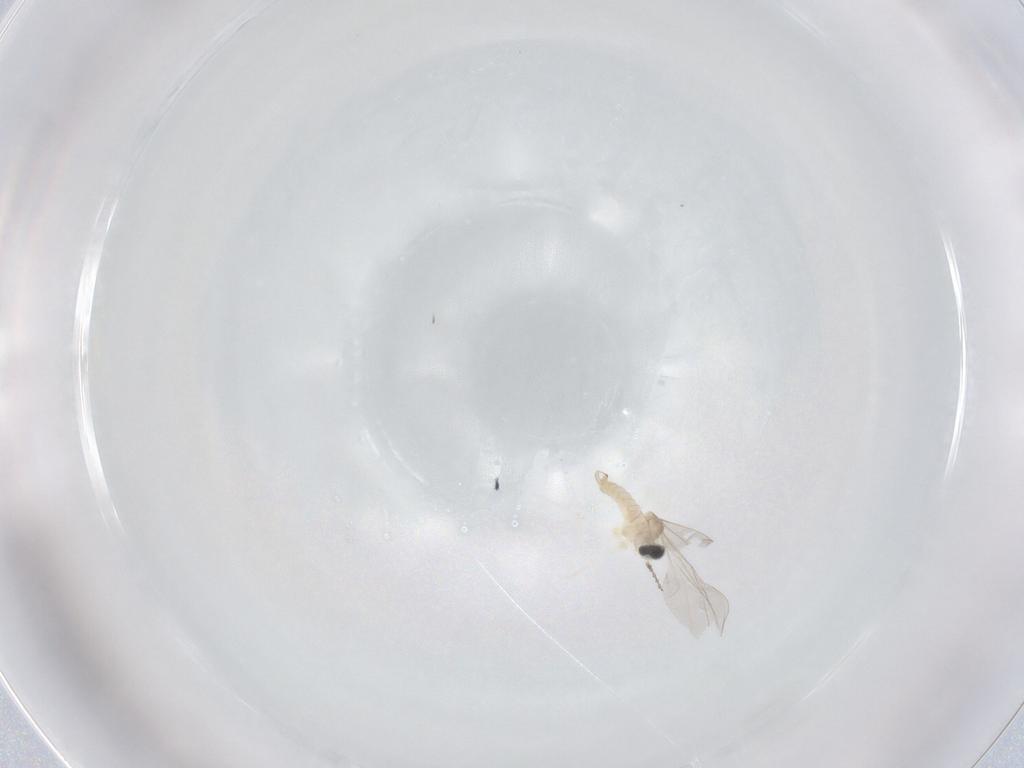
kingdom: Animalia
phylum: Arthropoda
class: Insecta
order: Diptera
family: Cecidomyiidae
